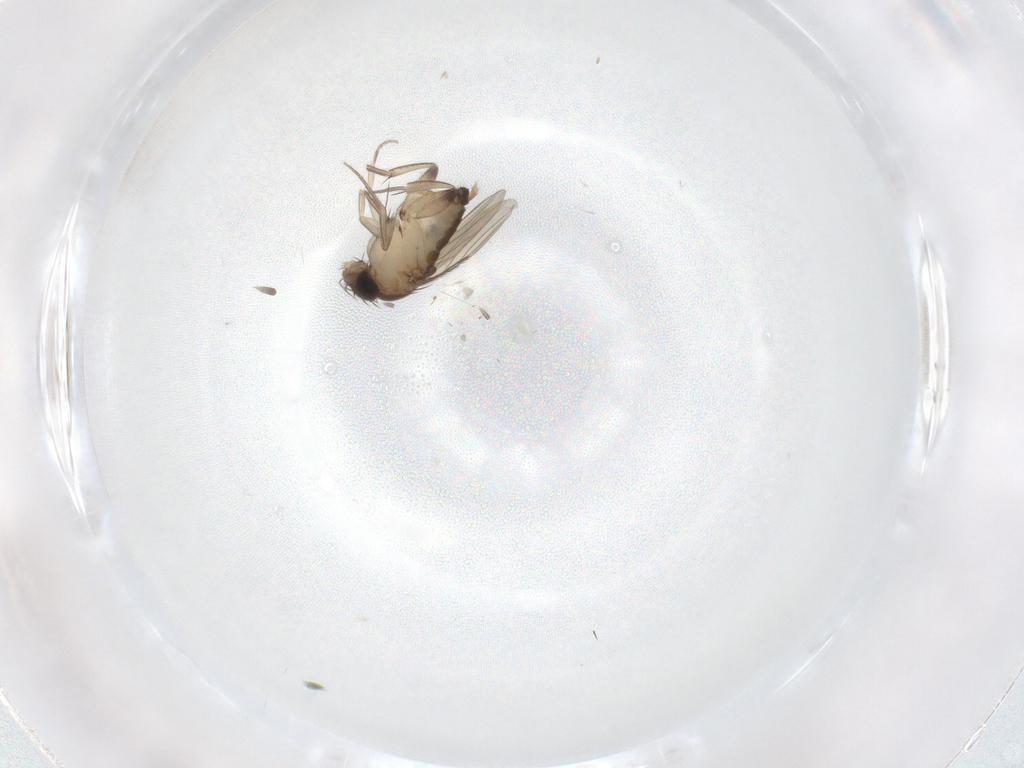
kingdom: Animalia
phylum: Arthropoda
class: Insecta
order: Diptera
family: Phoridae
